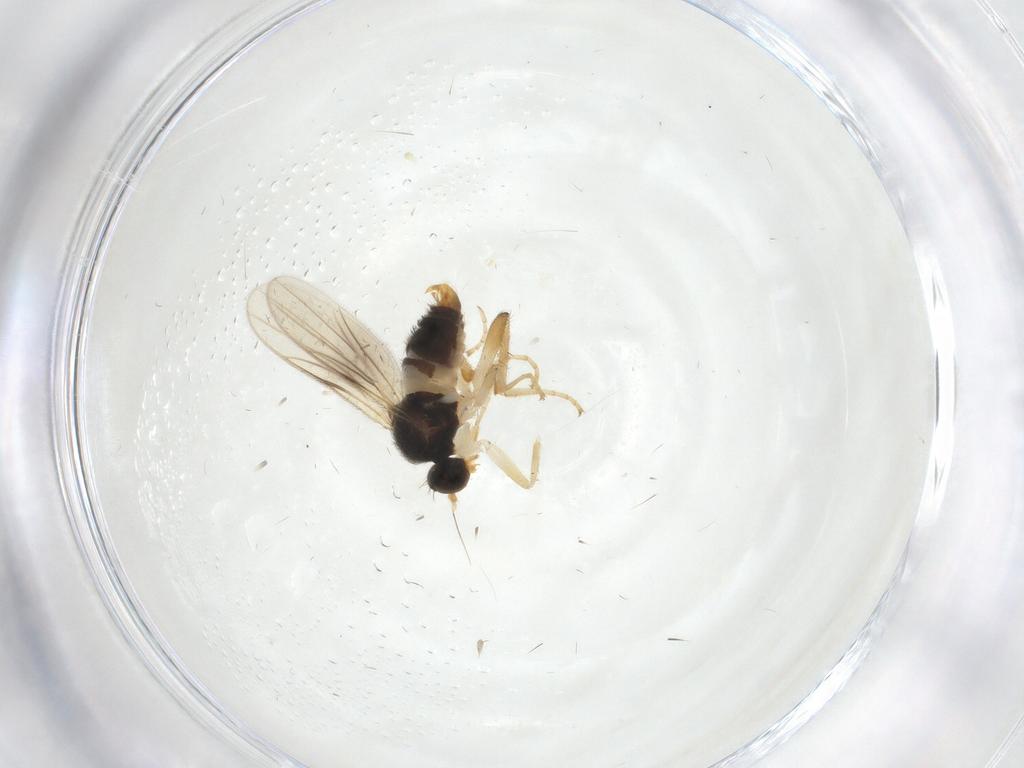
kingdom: Animalia
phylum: Arthropoda
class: Insecta
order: Diptera
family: Hybotidae
